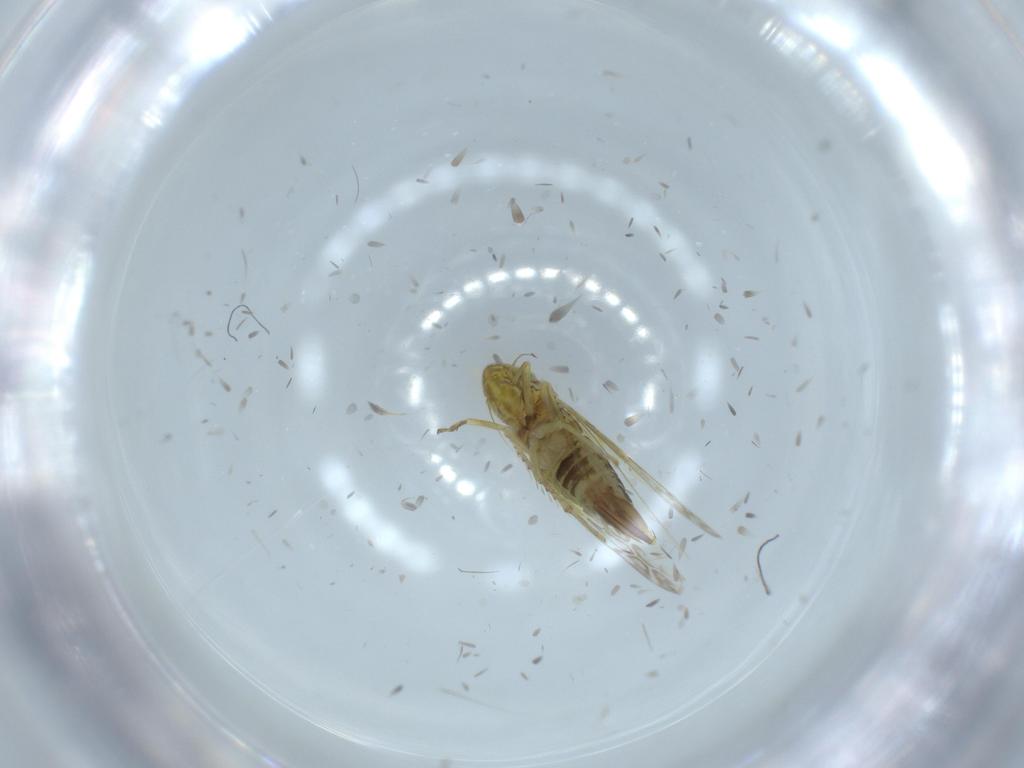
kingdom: Animalia
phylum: Arthropoda
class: Insecta
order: Hemiptera
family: Cicadellidae
